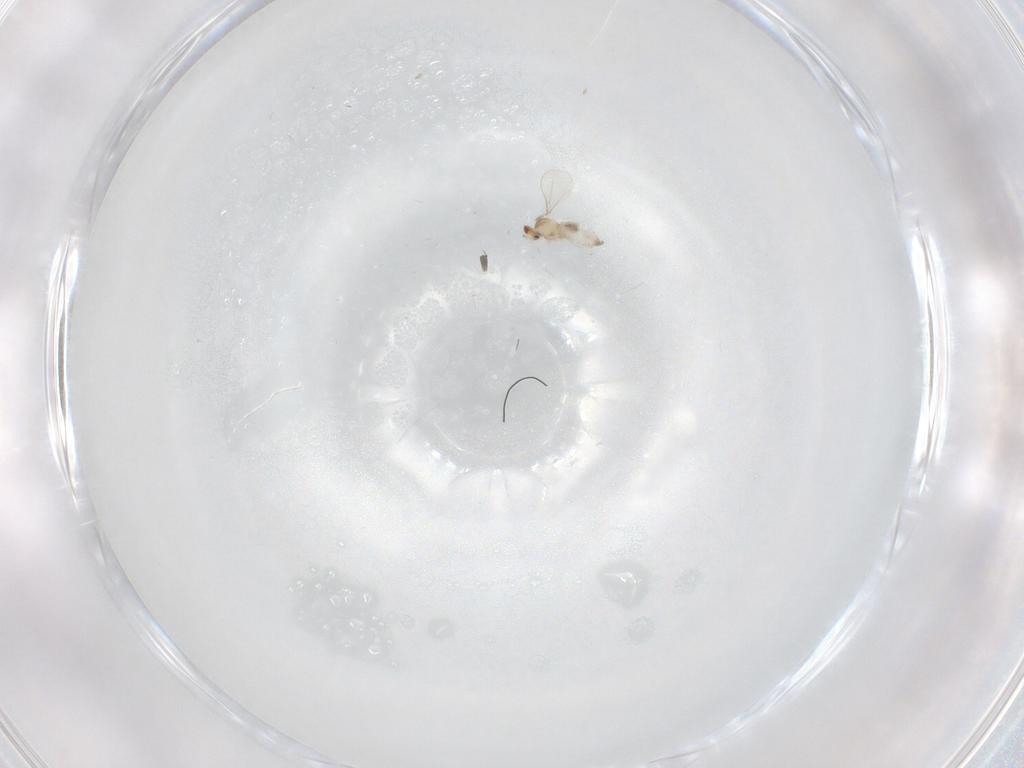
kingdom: Animalia
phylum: Arthropoda
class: Insecta
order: Diptera
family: Cecidomyiidae
